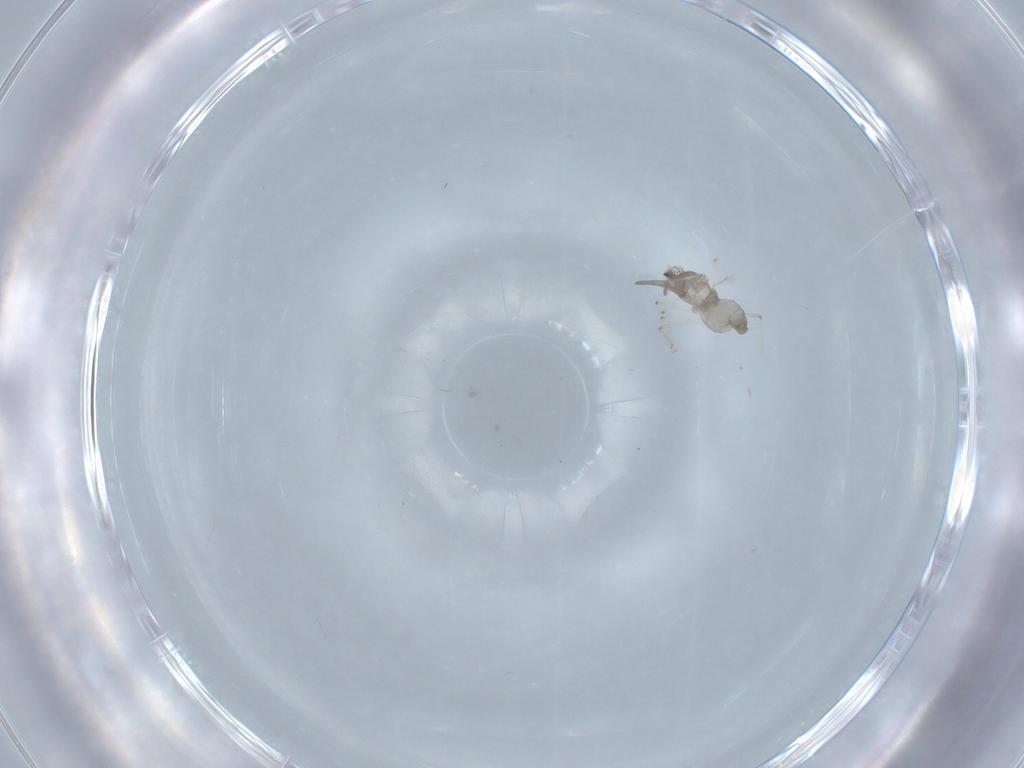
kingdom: Animalia
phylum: Arthropoda
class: Insecta
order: Diptera
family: Cecidomyiidae
